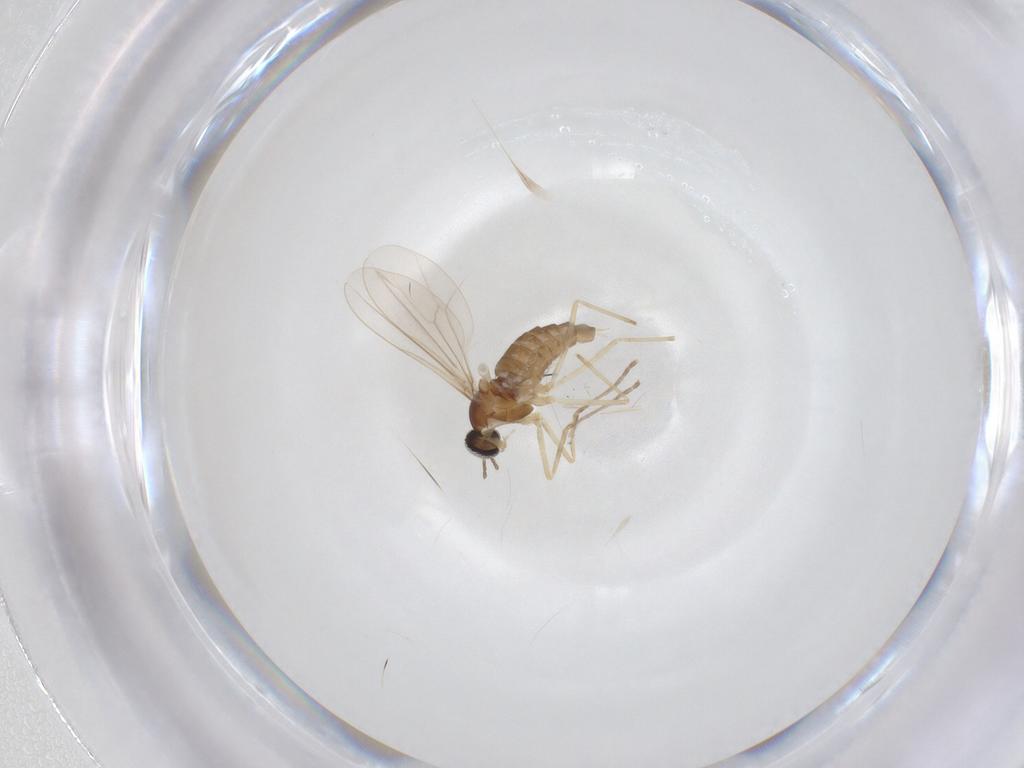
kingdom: Animalia
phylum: Arthropoda
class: Insecta
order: Diptera
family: Cecidomyiidae
